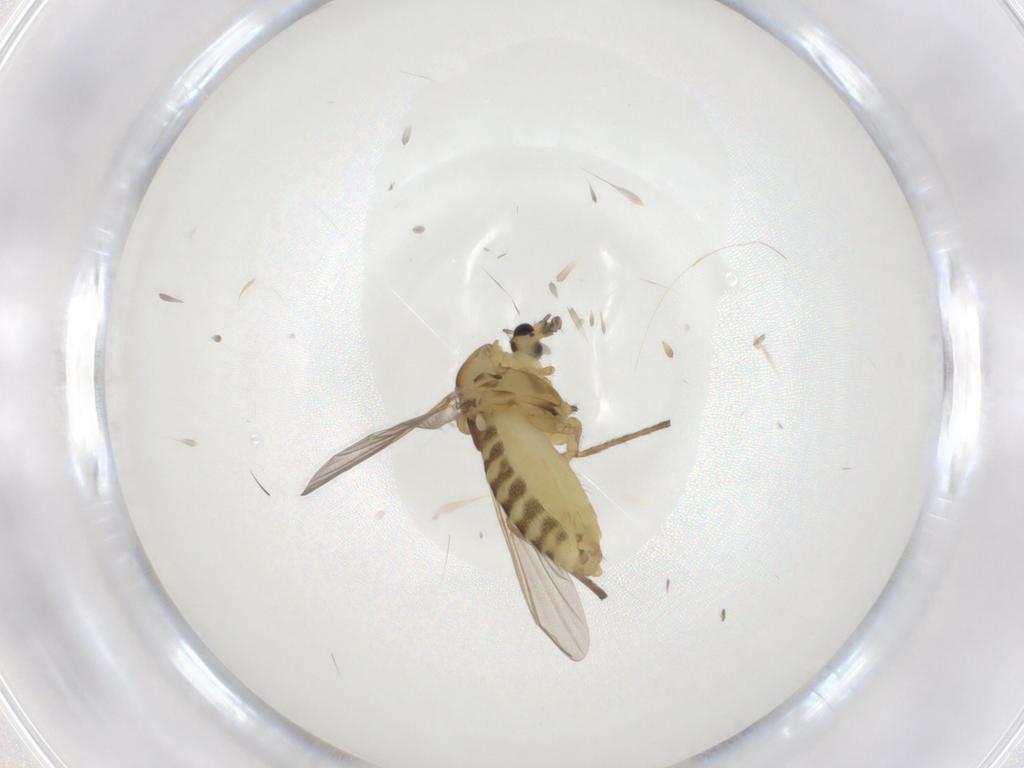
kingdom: Animalia
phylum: Arthropoda
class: Insecta
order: Diptera
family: Chironomidae
